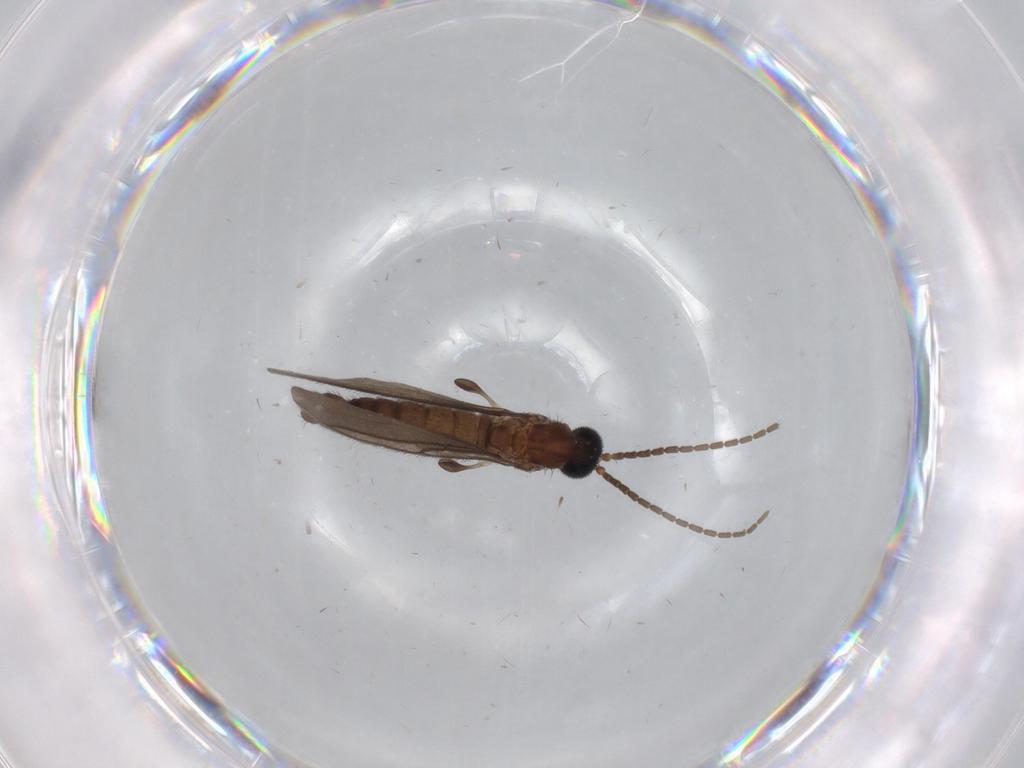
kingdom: Animalia
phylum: Arthropoda
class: Insecta
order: Diptera
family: Sciaridae
